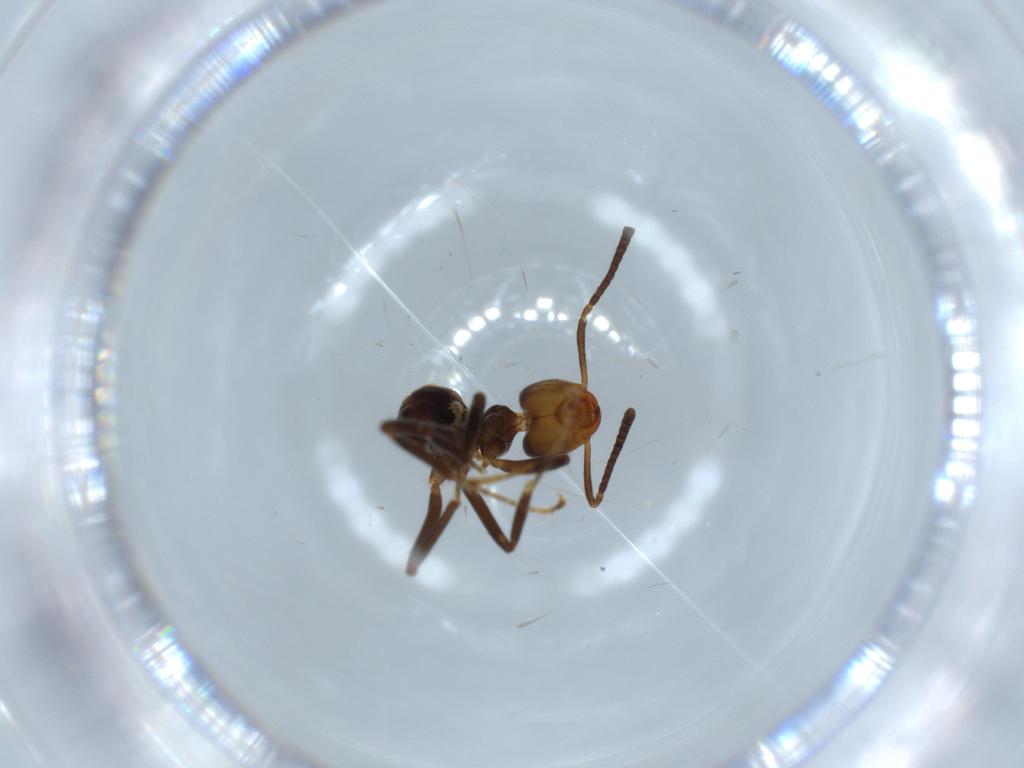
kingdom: Animalia
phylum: Arthropoda
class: Insecta
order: Hymenoptera
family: Formicidae
